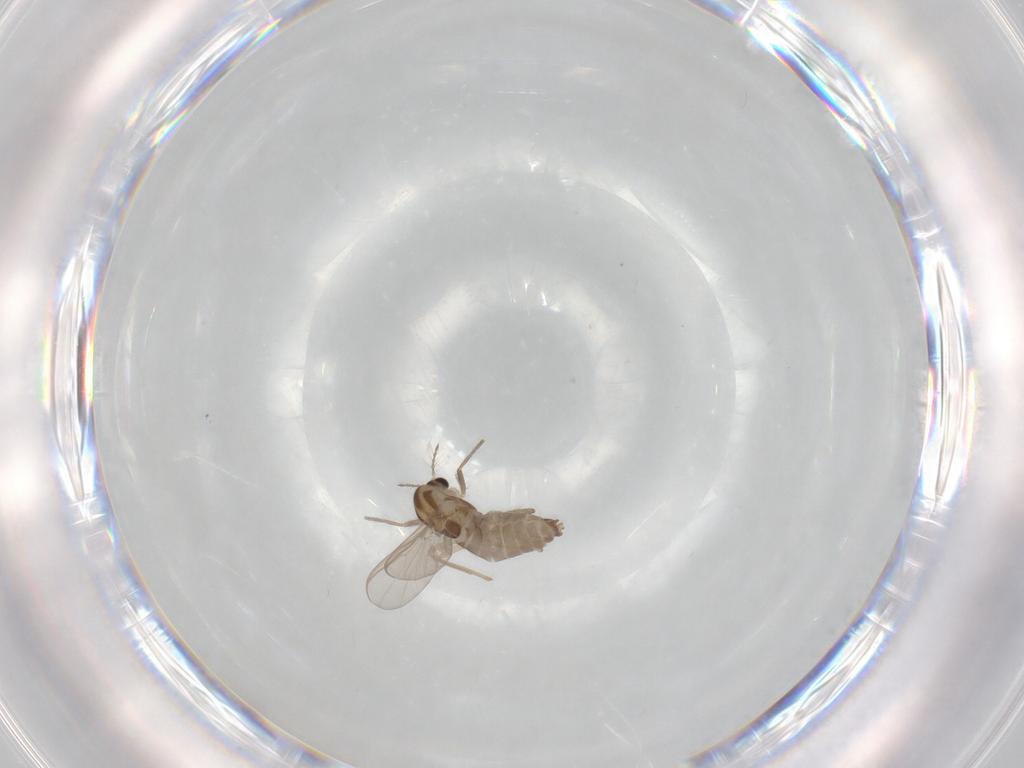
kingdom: Animalia
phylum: Arthropoda
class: Insecta
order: Diptera
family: Chironomidae
